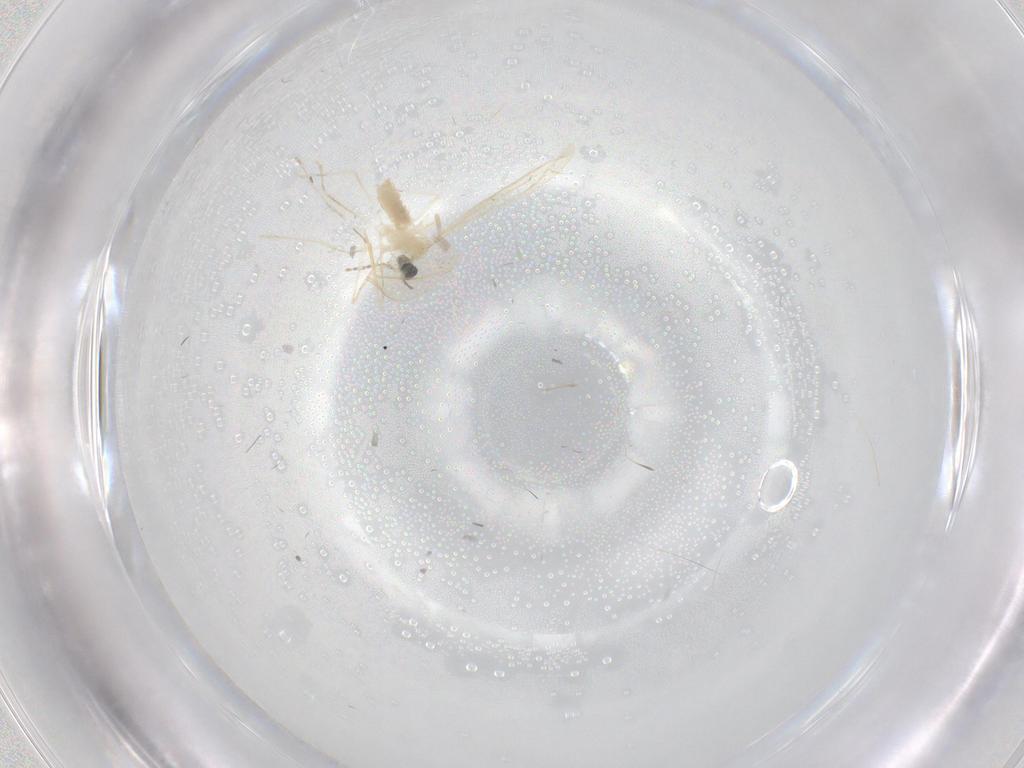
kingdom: Animalia
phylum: Arthropoda
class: Insecta
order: Diptera
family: Cecidomyiidae
